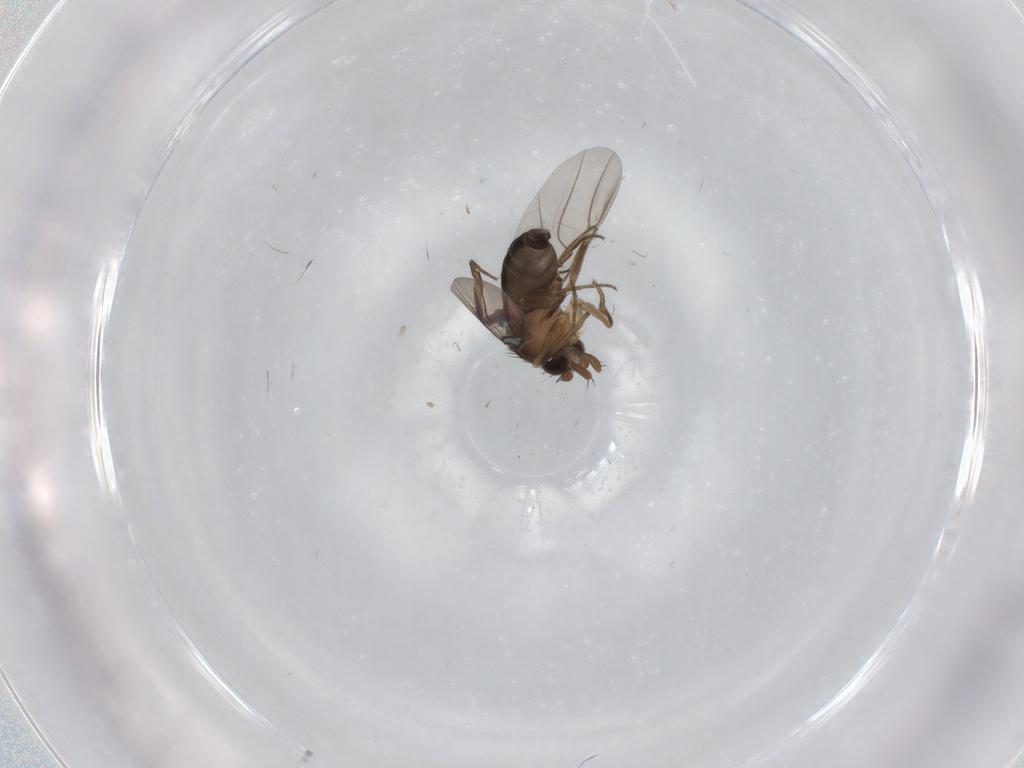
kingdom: Animalia
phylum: Arthropoda
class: Insecta
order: Diptera
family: Phoridae
